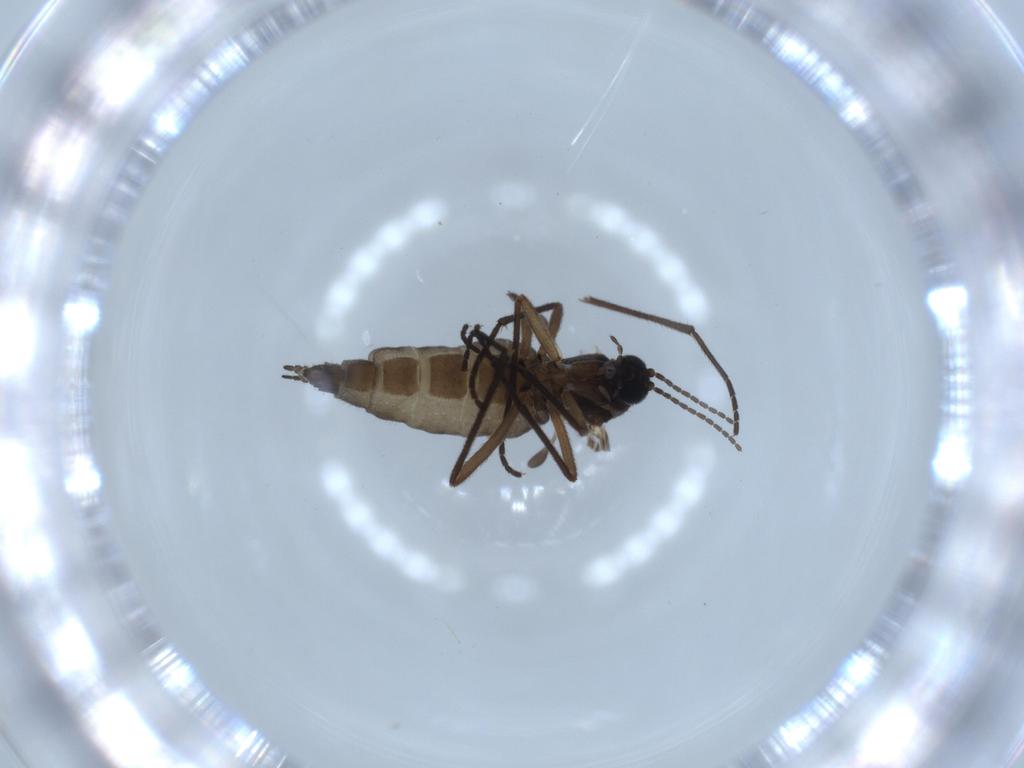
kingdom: Animalia
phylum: Arthropoda
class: Insecta
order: Diptera
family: Sciaridae
